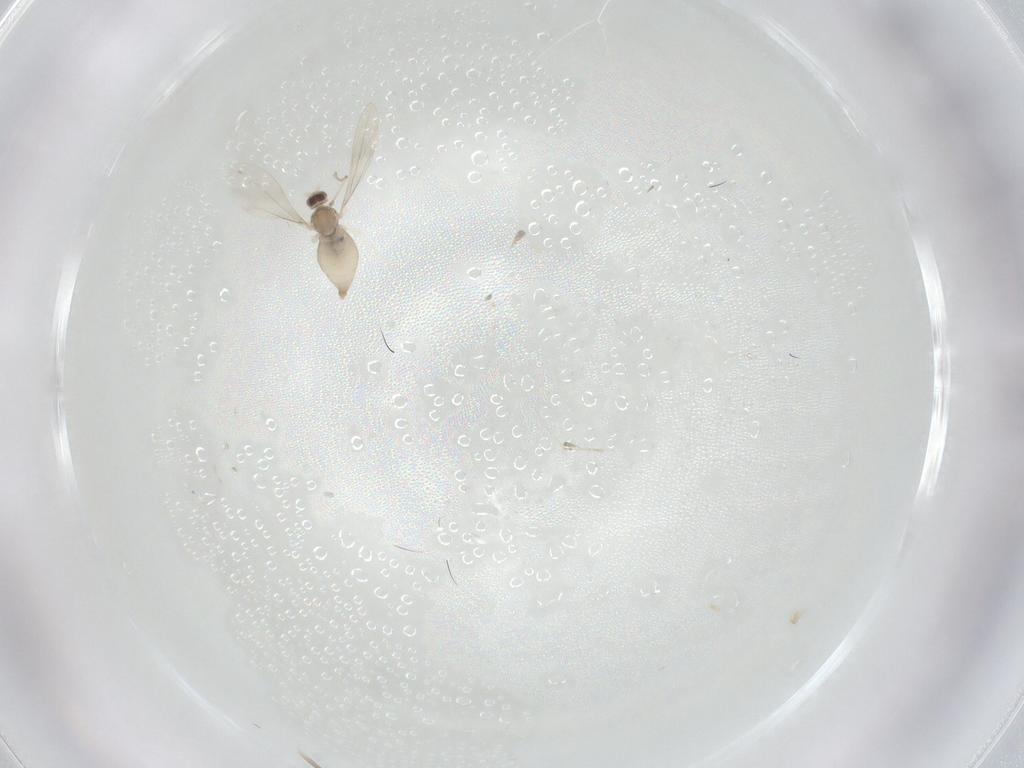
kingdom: Animalia
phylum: Arthropoda
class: Insecta
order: Diptera
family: Cecidomyiidae
